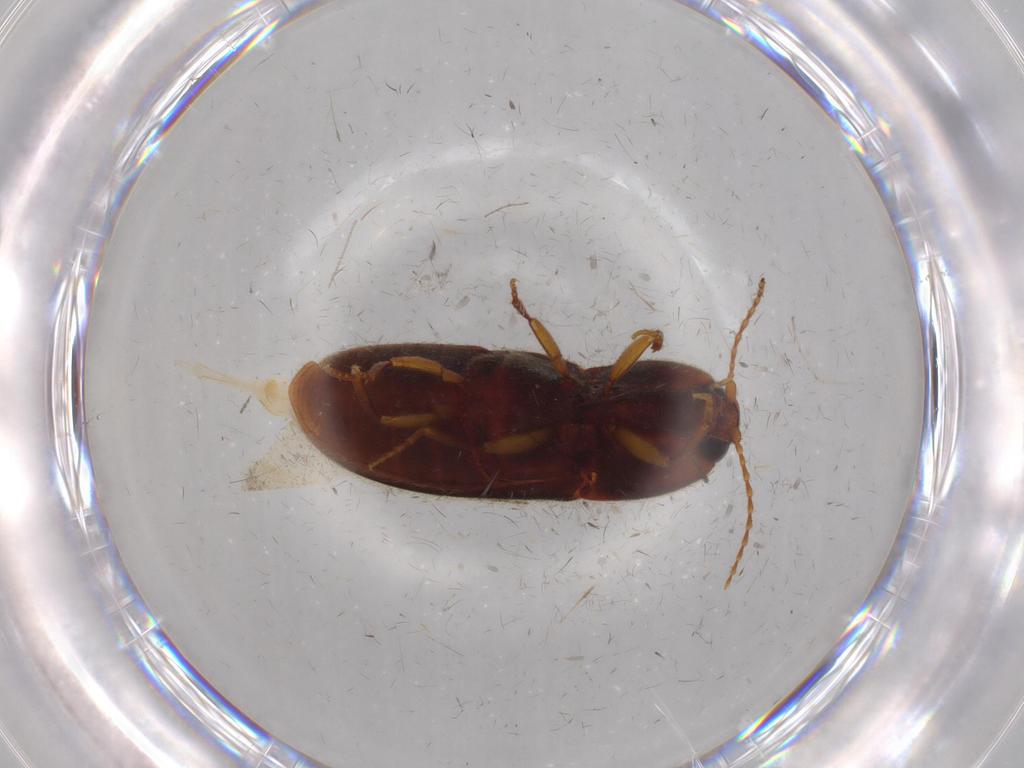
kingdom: Animalia
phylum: Arthropoda
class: Insecta
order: Coleoptera
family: Elateridae
